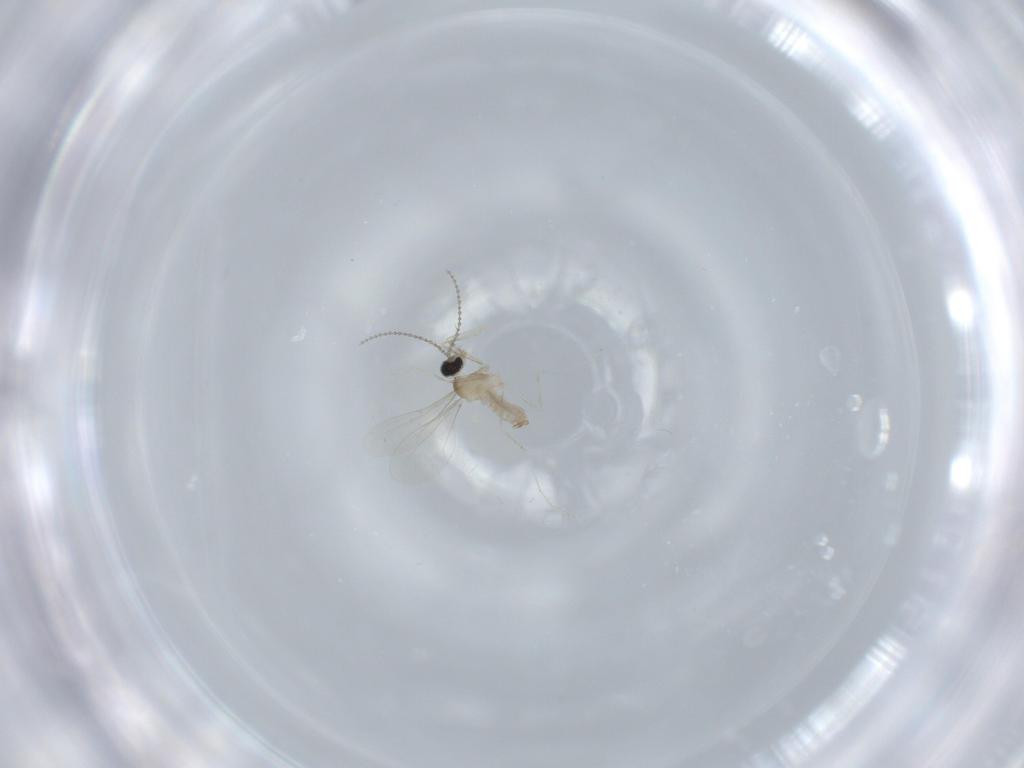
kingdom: Animalia
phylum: Arthropoda
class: Insecta
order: Diptera
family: Cecidomyiidae
